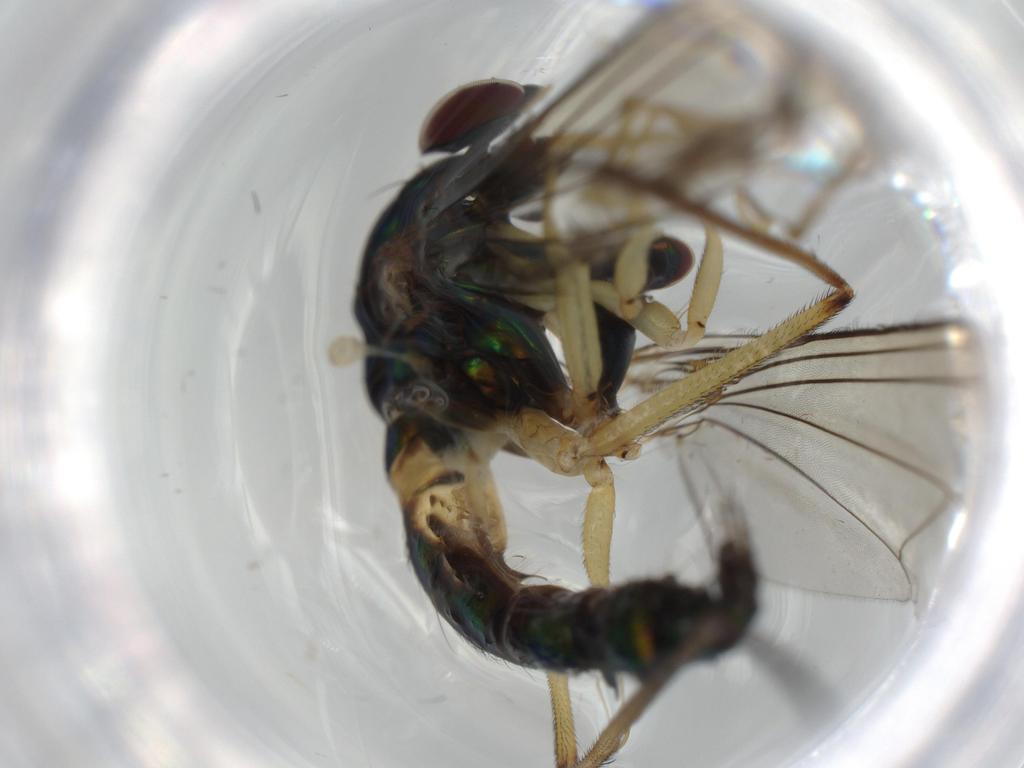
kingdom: Animalia
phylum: Arthropoda
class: Insecta
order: Diptera
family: Dolichopodidae
